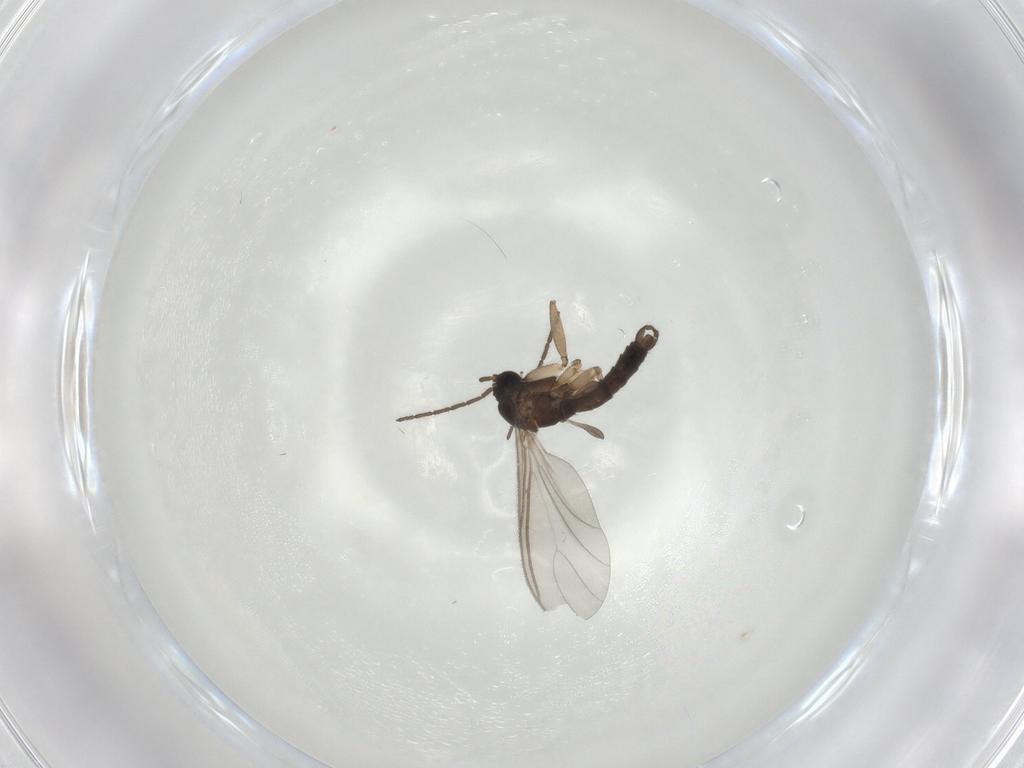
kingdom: Animalia
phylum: Arthropoda
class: Insecta
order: Diptera
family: Sciaridae
